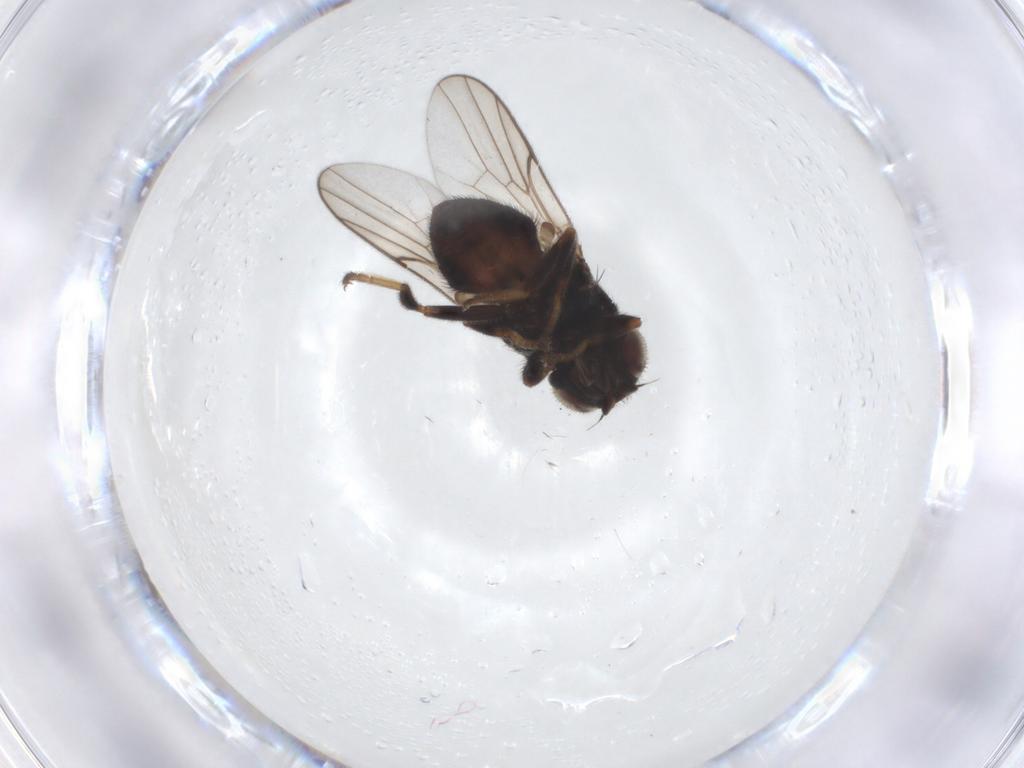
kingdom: Animalia
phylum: Arthropoda
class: Insecta
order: Diptera
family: Chloropidae
